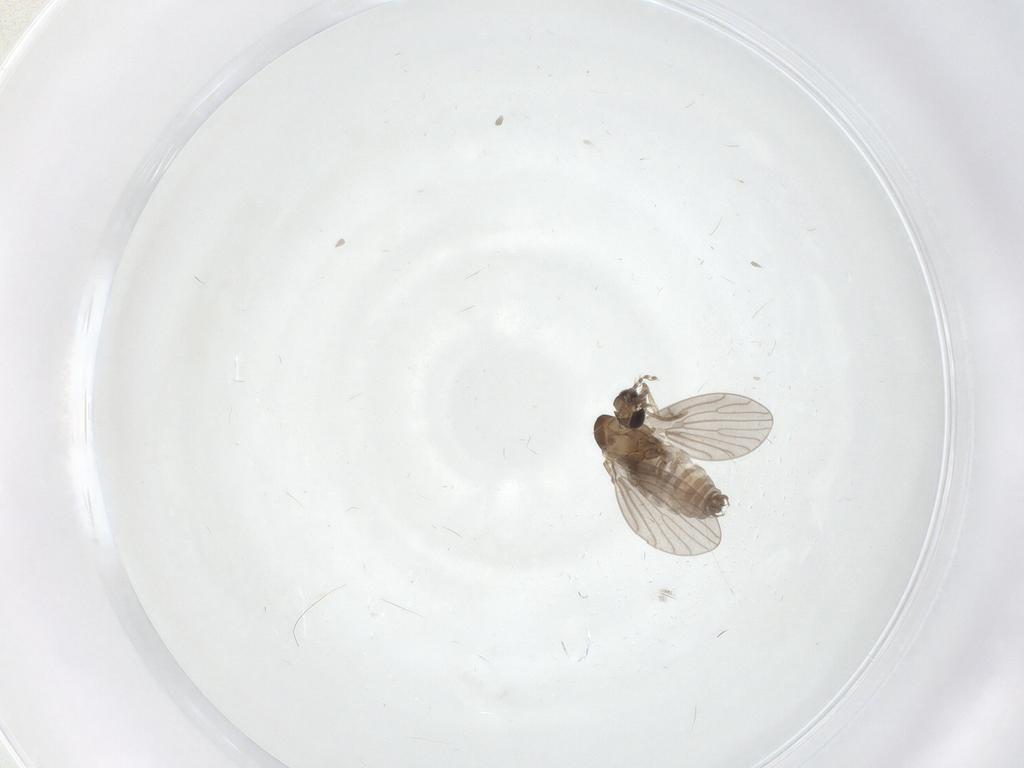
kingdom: Animalia
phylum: Arthropoda
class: Insecta
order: Diptera
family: Psychodidae
